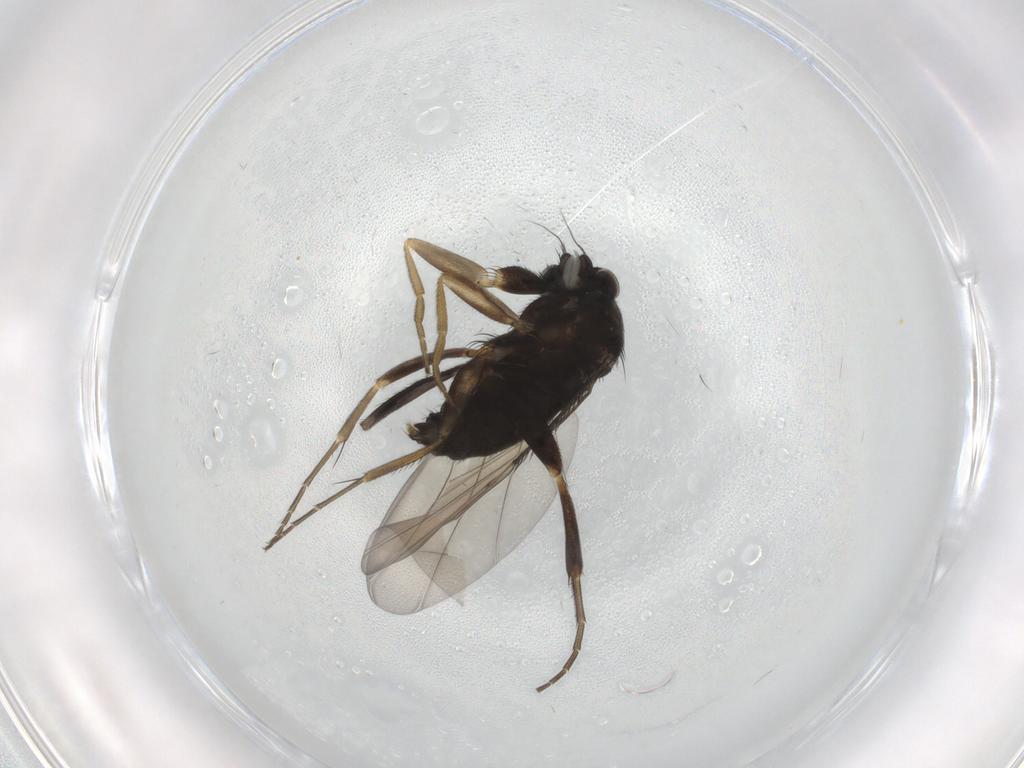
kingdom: Animalia
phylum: Arthropoda
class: Insecta
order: Diptera
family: Phoridae
